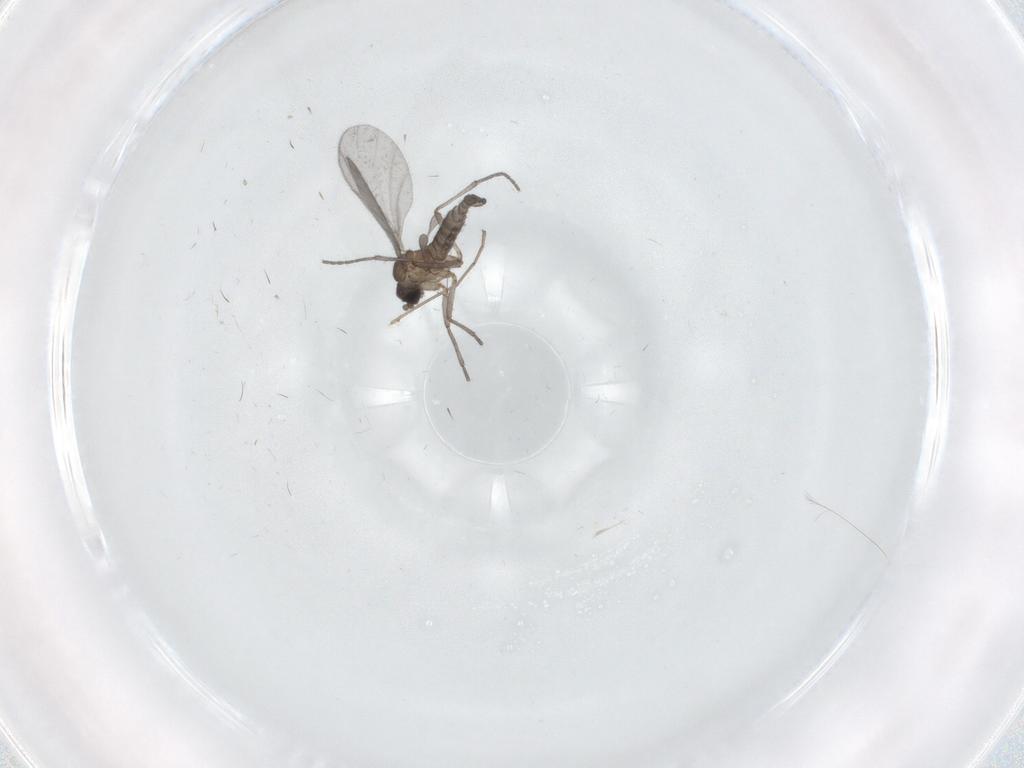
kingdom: Animalia
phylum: Arthropoda
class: Insecta
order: Diptera
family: Sciaridae
